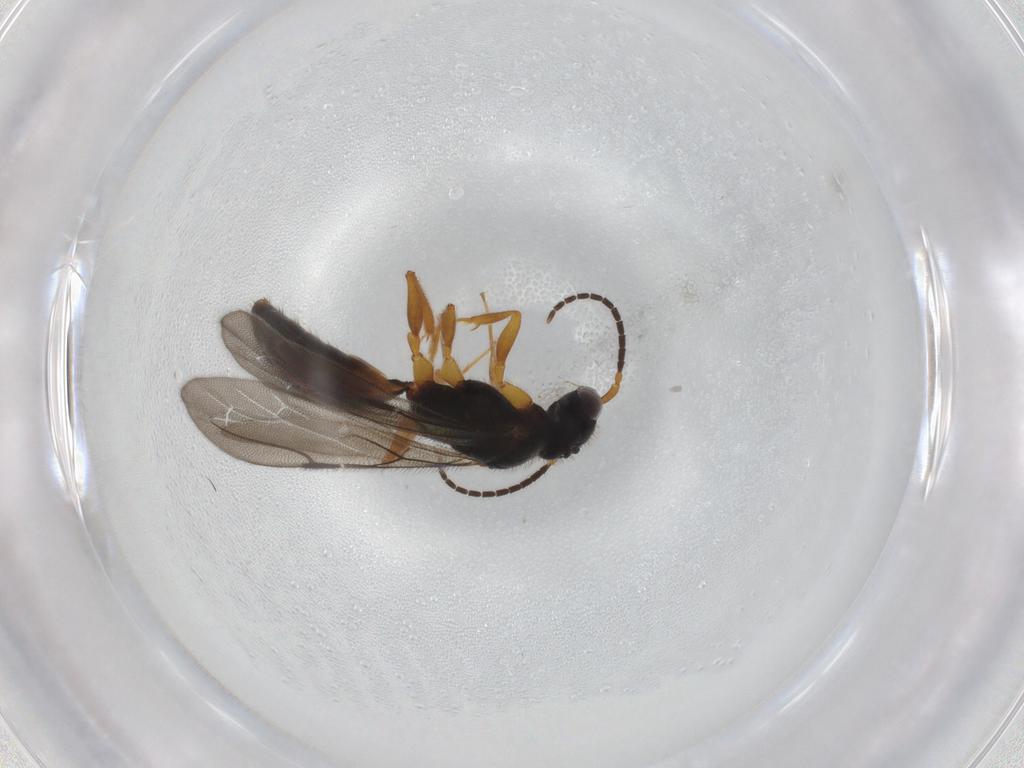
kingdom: Animalia
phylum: Arthropoda
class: Insecta
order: Hymenoptera
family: Bethylidae
